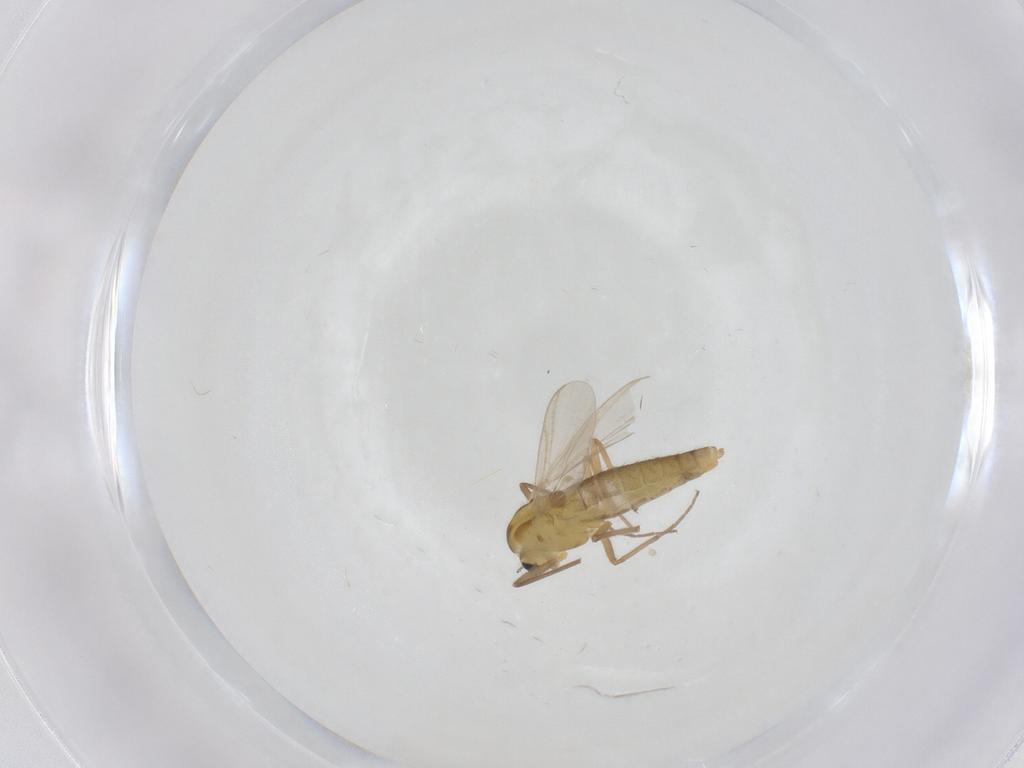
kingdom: Animalia
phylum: Arthropoda
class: Insecta
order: Diptera
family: Chironomidae
